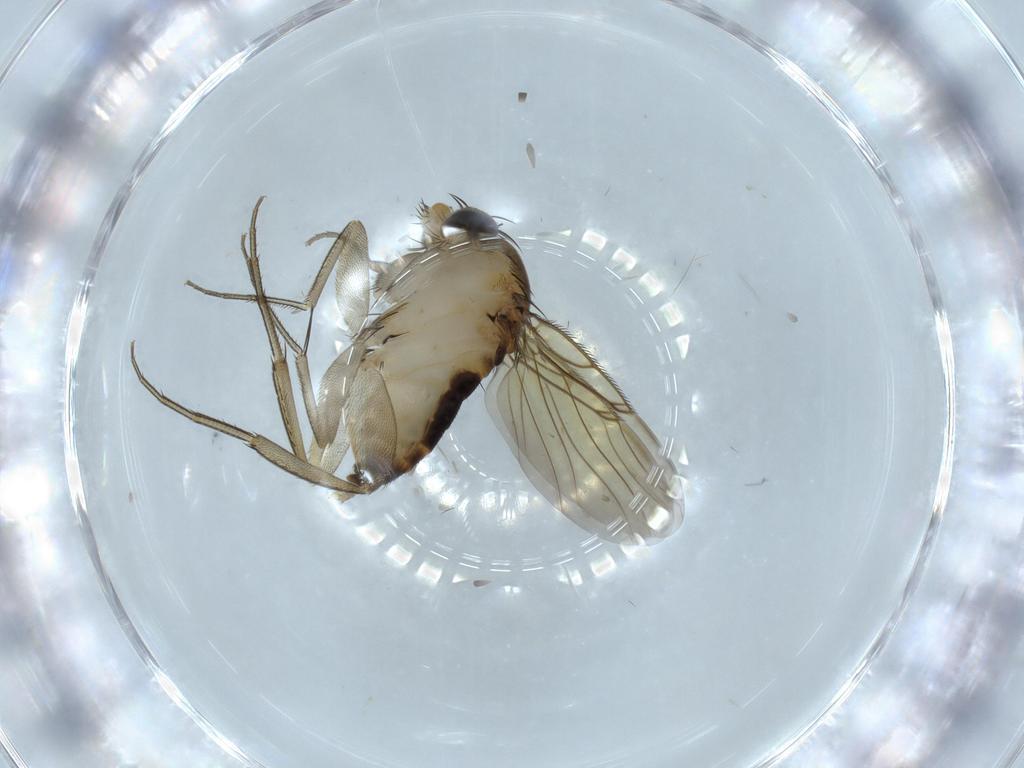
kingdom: Animalia
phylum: Arthropoda
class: Insecta
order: Diptera
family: Phoridae
